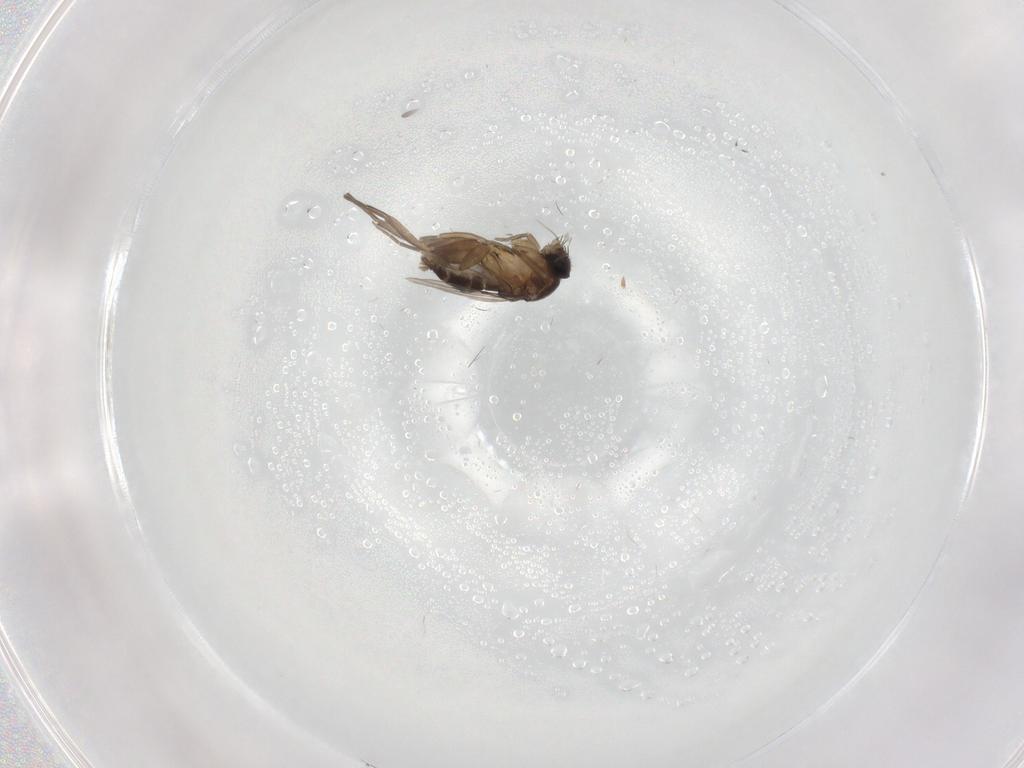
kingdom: Animalia
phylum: Arthropoda
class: Insecta
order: Diptera
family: Phoridae
